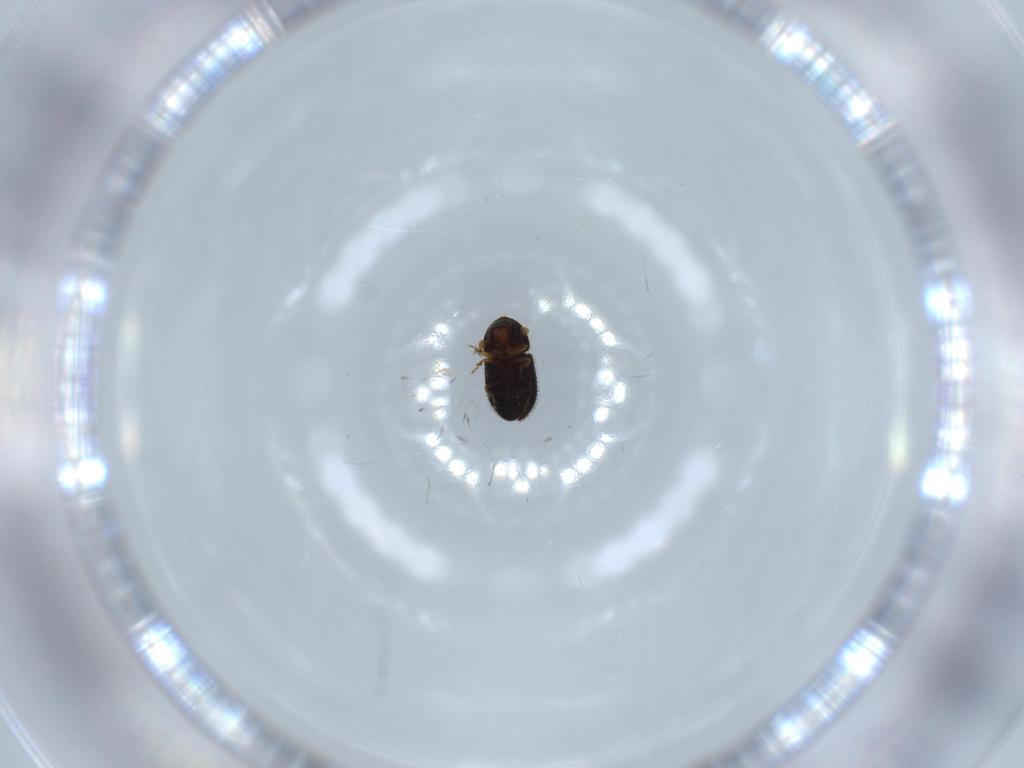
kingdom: Animalia
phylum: Arthropoda
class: Insecta
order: Coleoptera
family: Curculionidae
